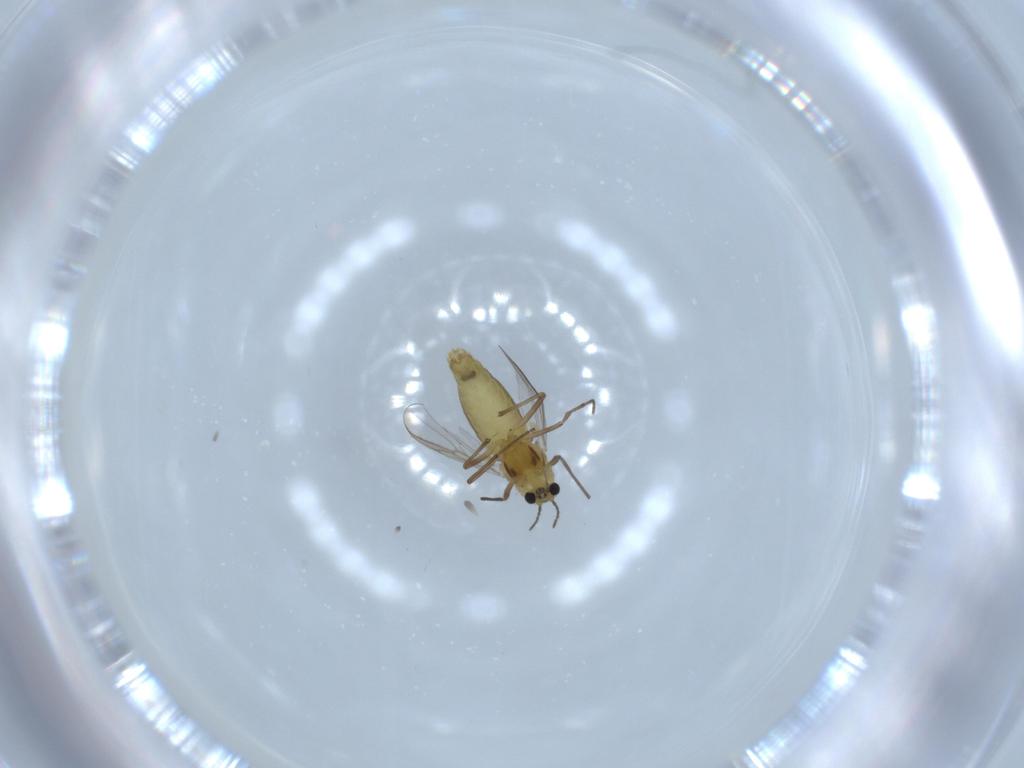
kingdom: Animalia
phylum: Arthropoda
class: Insecta
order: Diptera
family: Chironomidae
